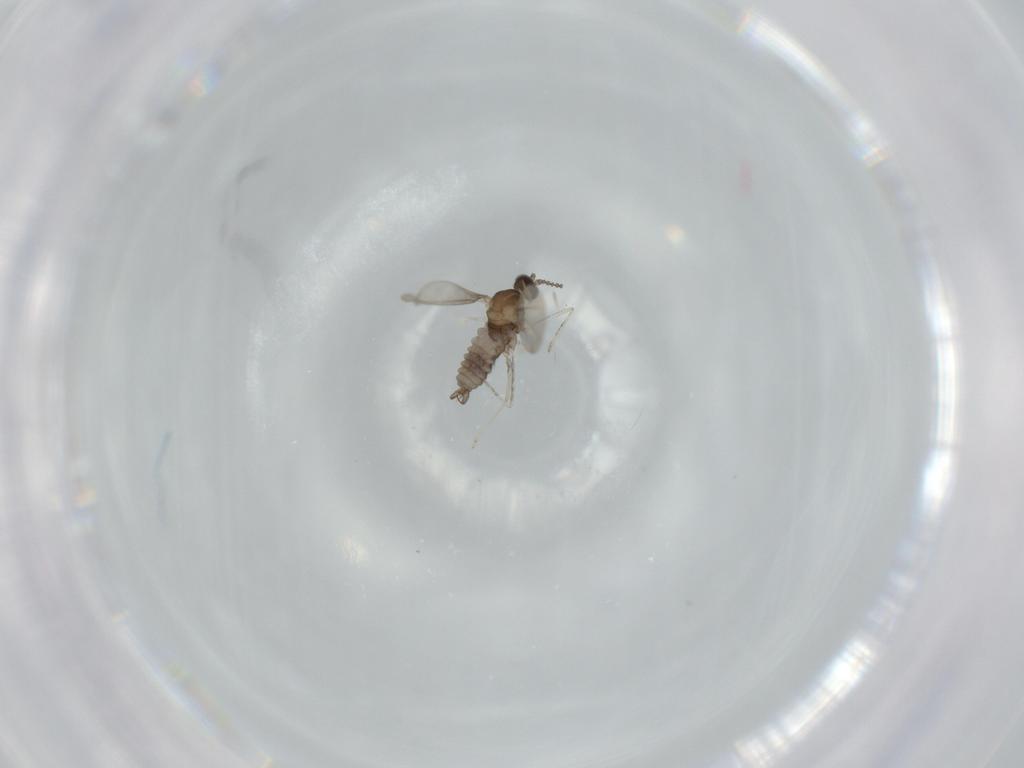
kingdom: Animalia
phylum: Arthropoda
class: Insecta
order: Diptera
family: Cecidomyiidae
